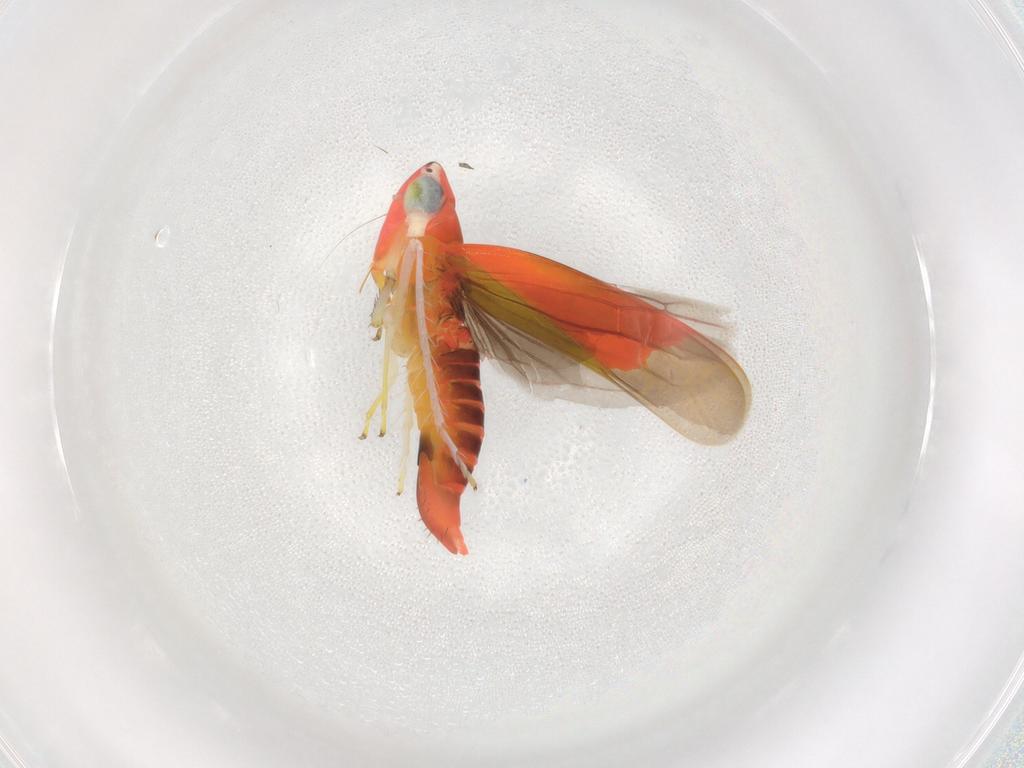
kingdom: Animalia
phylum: Arthropoda
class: Insecta
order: Hemiptera
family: Cicadellidae
